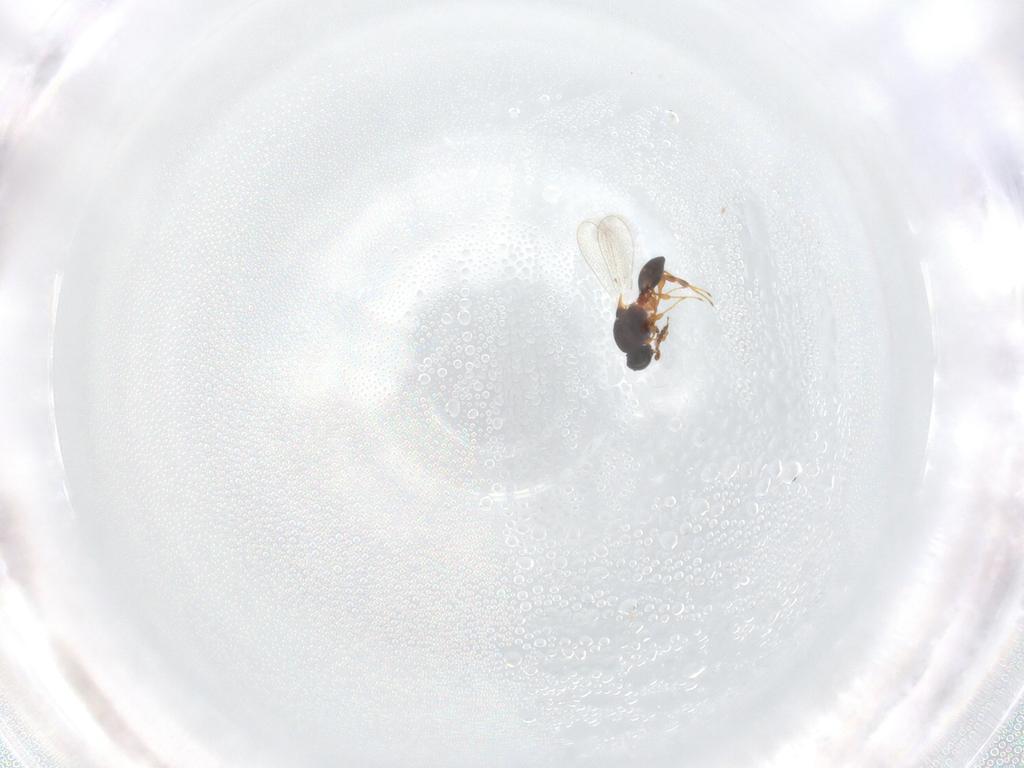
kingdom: Animalia
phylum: Arthropoda
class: Insecta
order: Hymenoptera
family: Platygastridae
